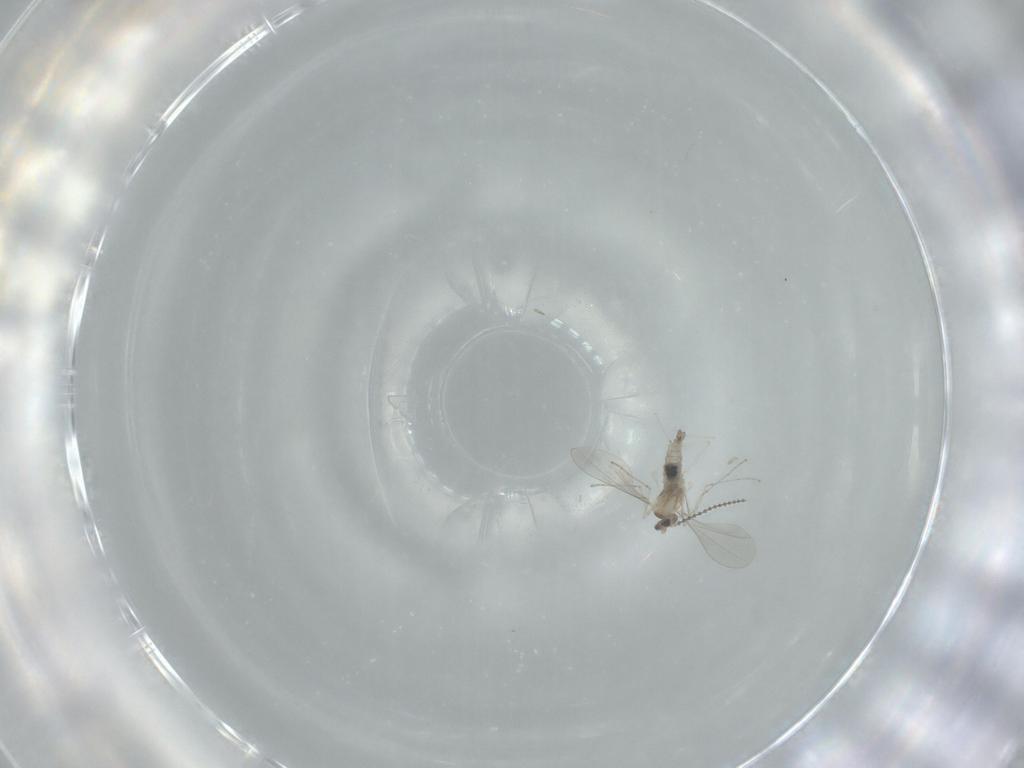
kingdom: Animalia
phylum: Arthropoda
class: Insecta
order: Diptera
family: Cecidomyiidae
